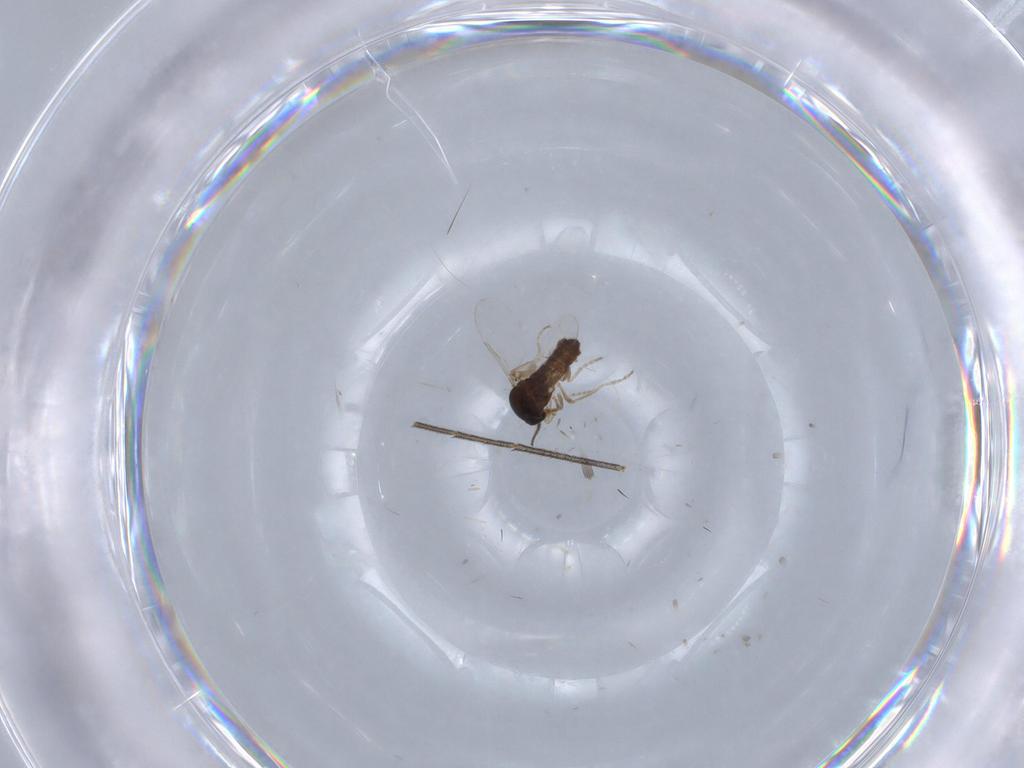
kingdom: Animalia
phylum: Arthropoda
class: Insecta
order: Diptera
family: Ceratopogonidae
